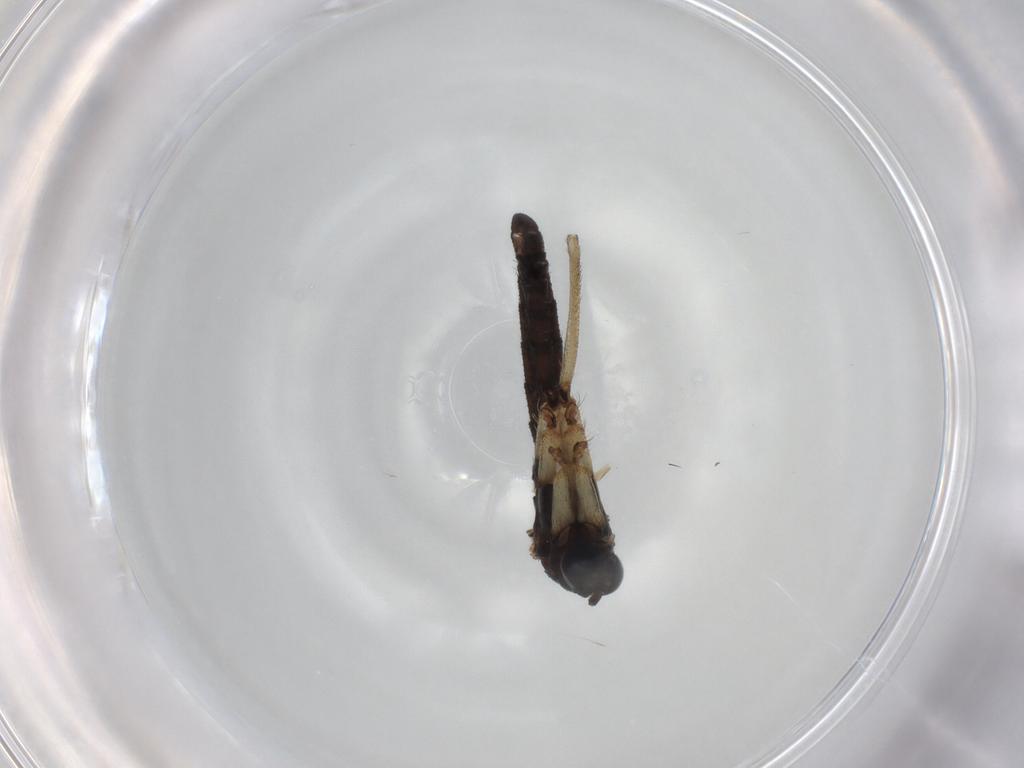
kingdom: Animalia
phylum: Arthropoda
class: Insecta
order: Diptera
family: Sciaridae
